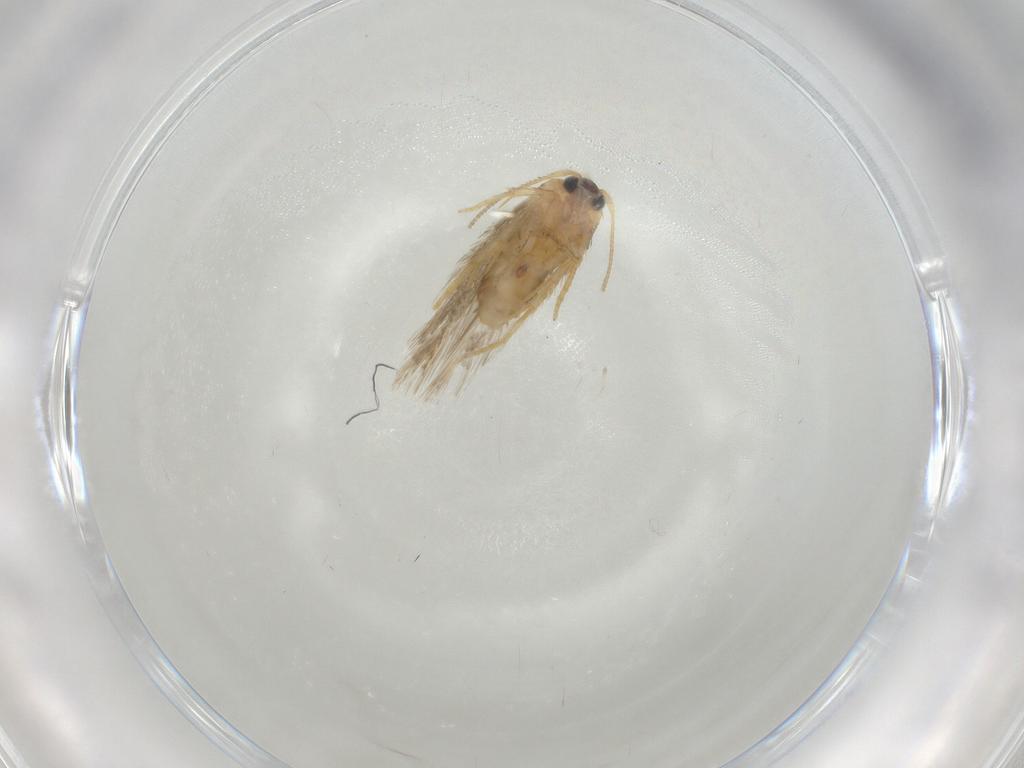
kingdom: Animalia
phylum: Arthropoda
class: Insecta
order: Lepidoptera
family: Nepticulidae
